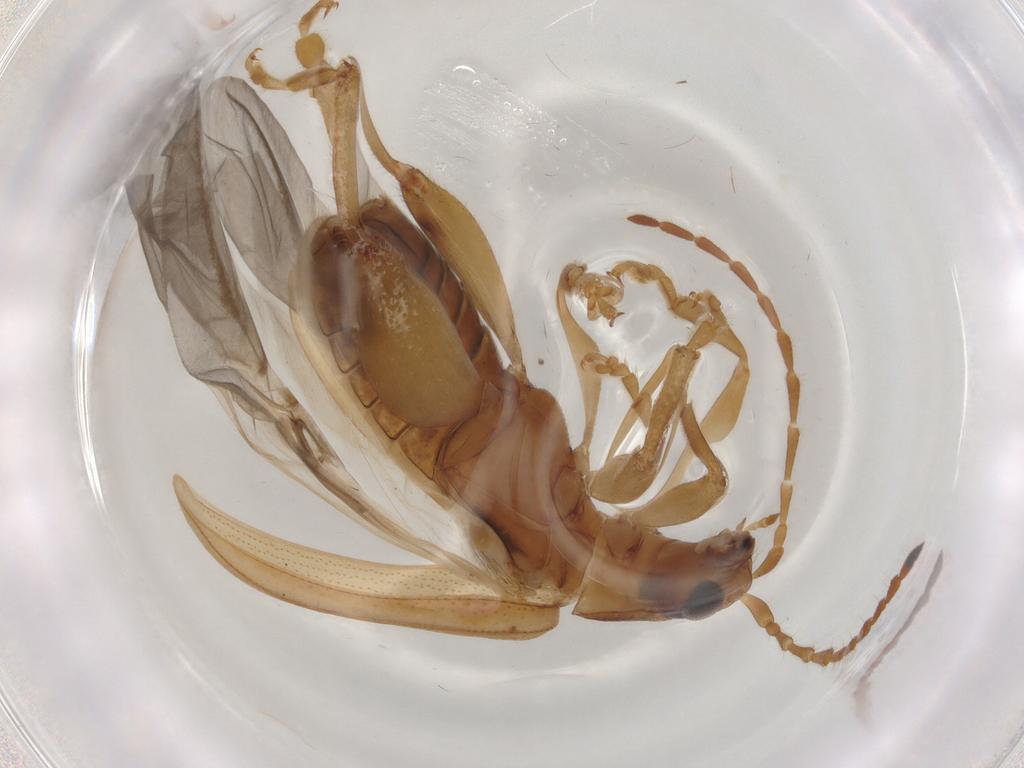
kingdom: Animalia
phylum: Arthropoda
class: Insecta
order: Coleoptera
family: Chrysomelidae
